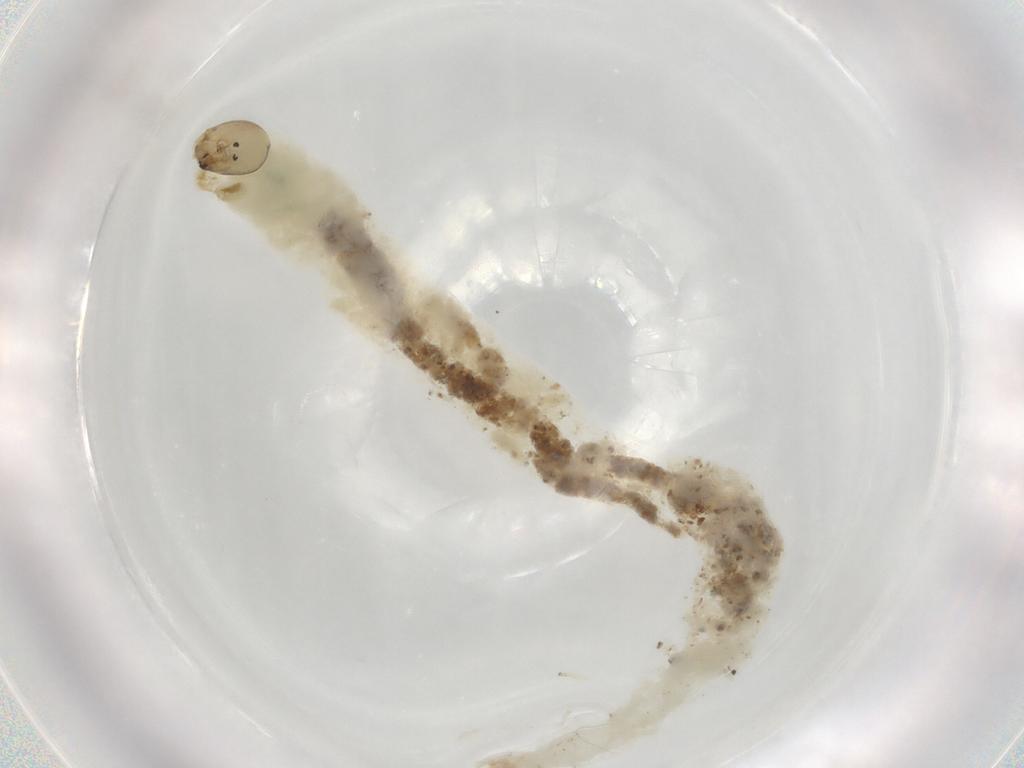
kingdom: Animalia
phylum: Arthropoda
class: Insecta
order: Diptera
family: Chironomidae
